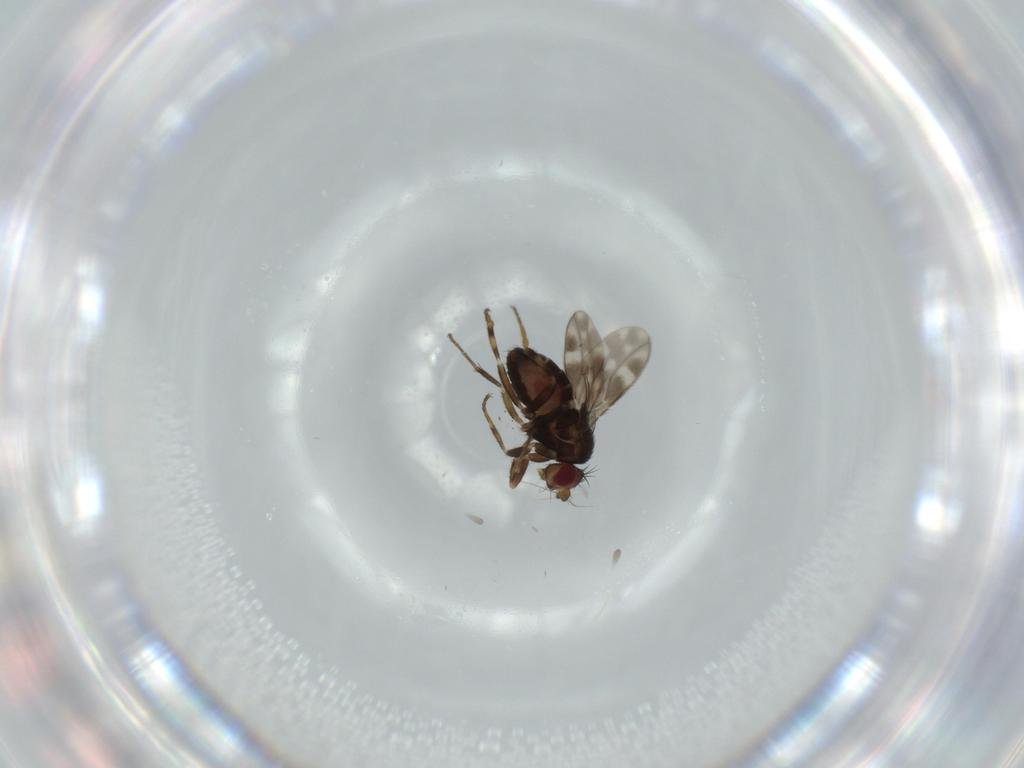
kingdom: Animalia
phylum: Arthropoda
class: Insecta
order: Diptera
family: Sphaeroceridae
